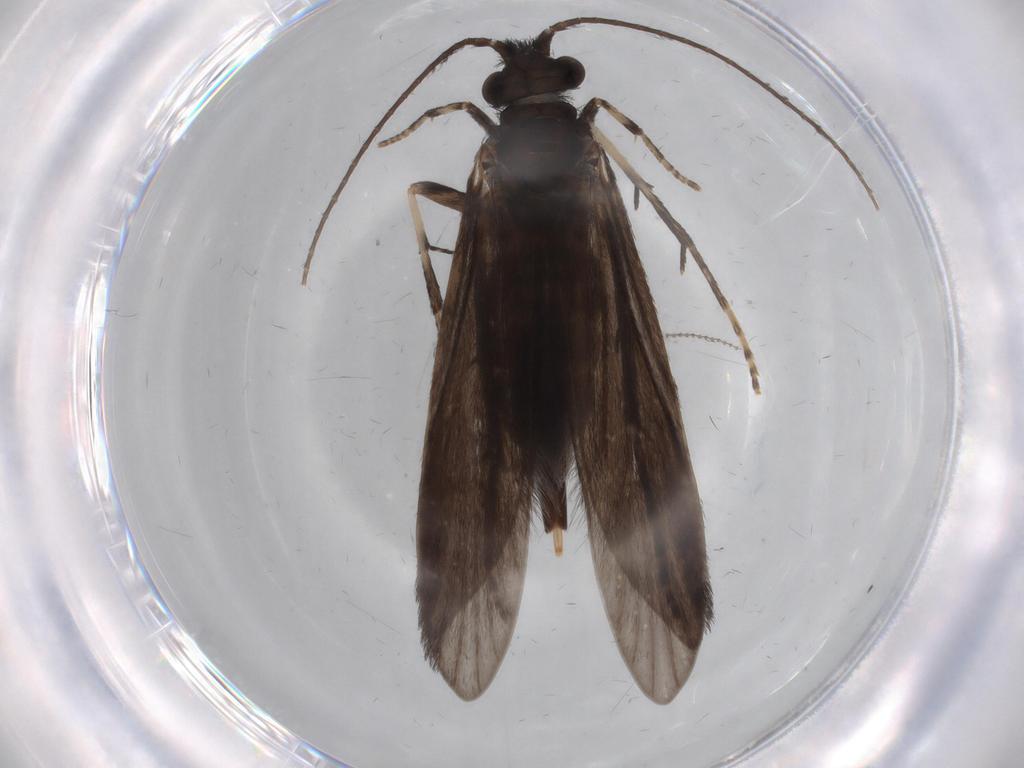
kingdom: Animalia
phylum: Arthropoda
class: Insecta
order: Trichoptera
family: Xiphocentronidae
